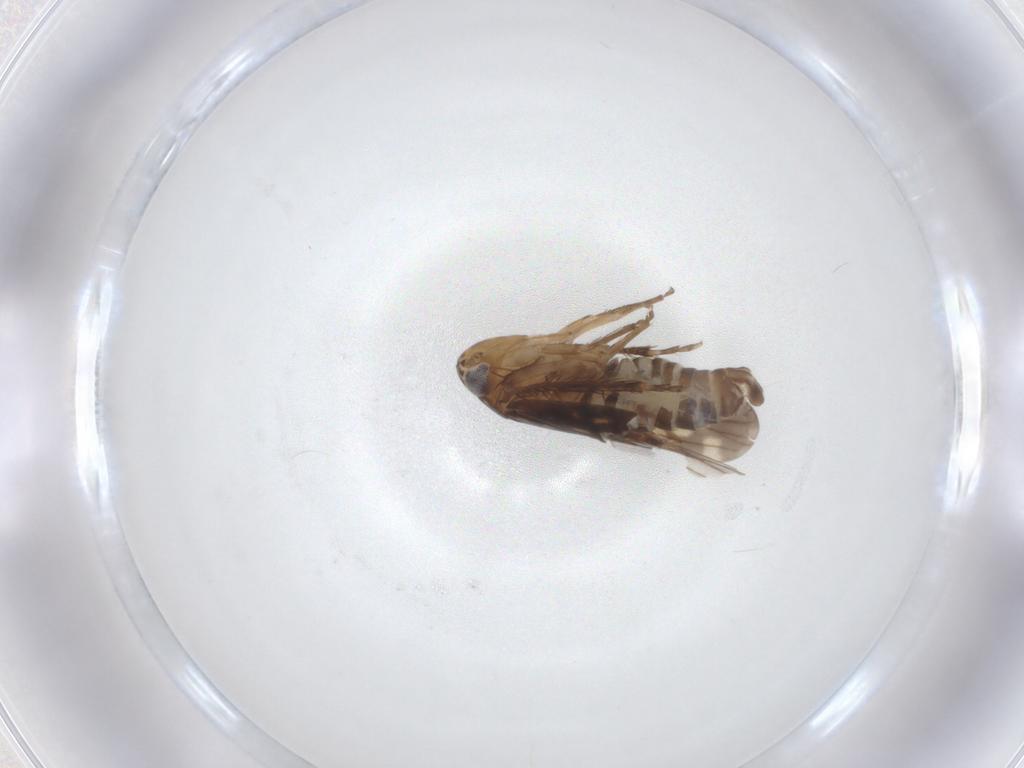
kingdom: Animalia
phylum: Arthropoda
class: Insecta
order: Hemiptera
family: Cicadellidae
